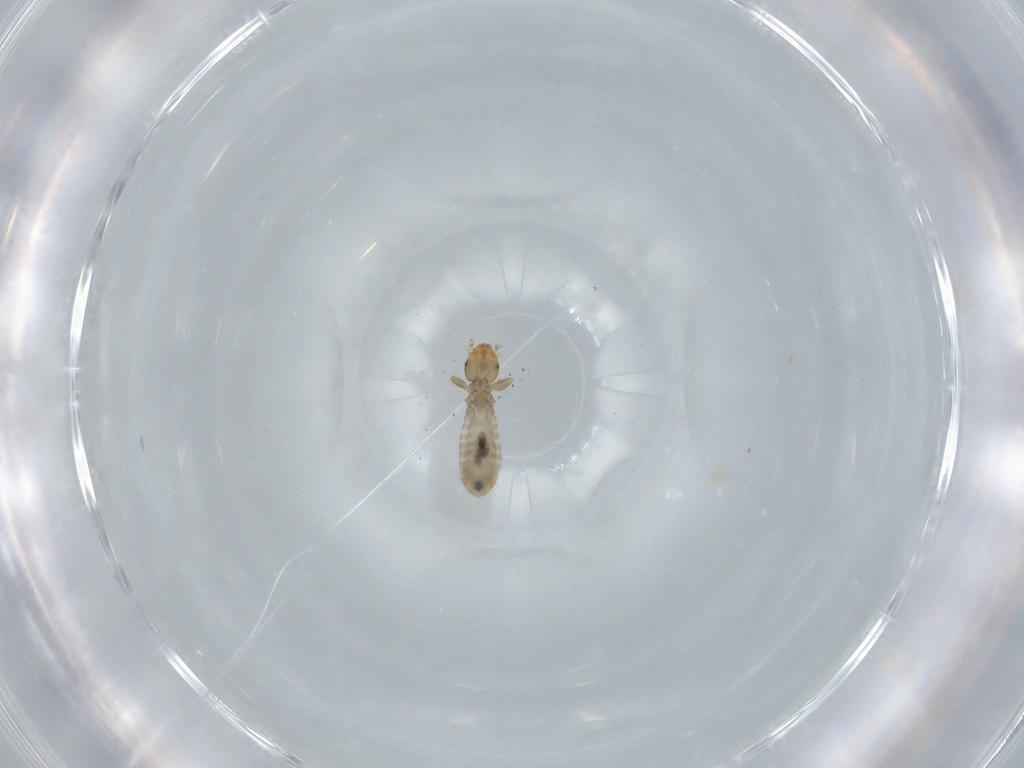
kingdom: Animalia
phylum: Arthropoda
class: Insecta
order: Psocodea
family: Liposcelididae
